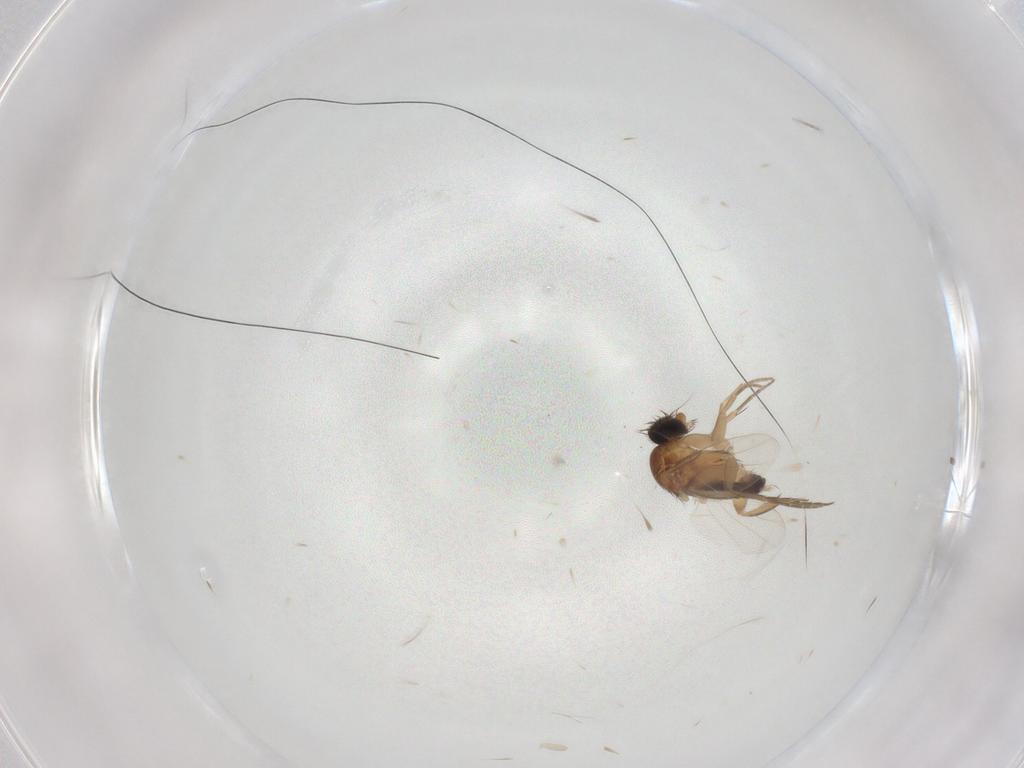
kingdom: Animalia
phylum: Arthropoda
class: Insecta
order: Diptera
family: Phoridae
